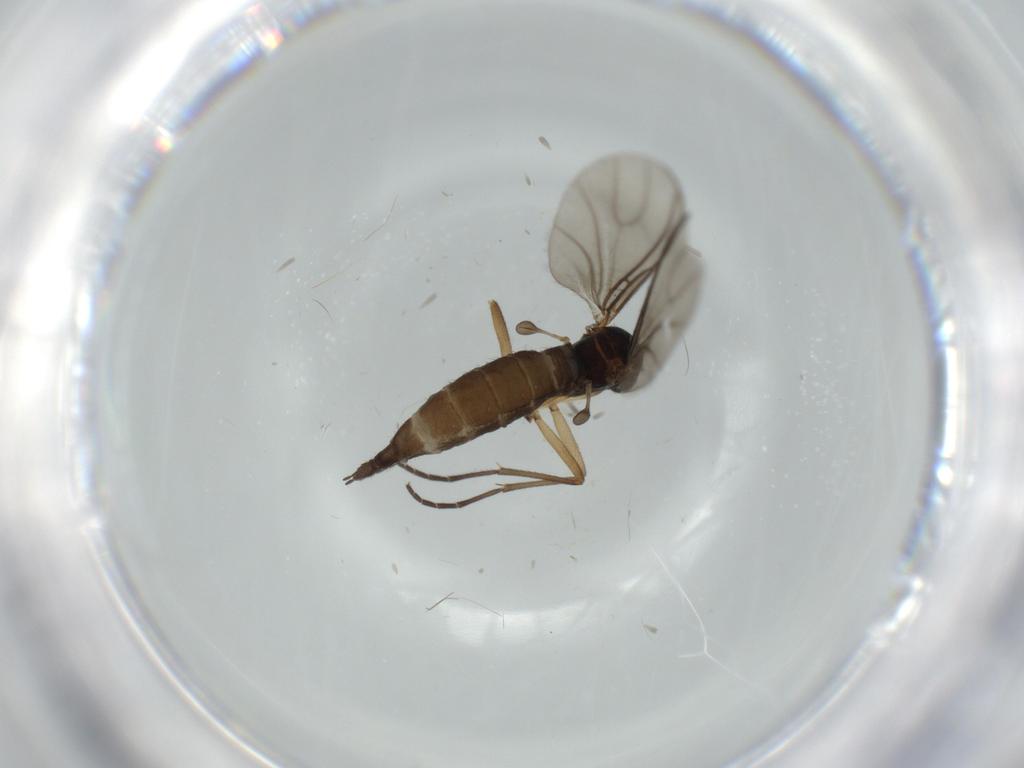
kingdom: Animalia
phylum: Arthropoda
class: Insecta
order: Diptera
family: Sciaridae
